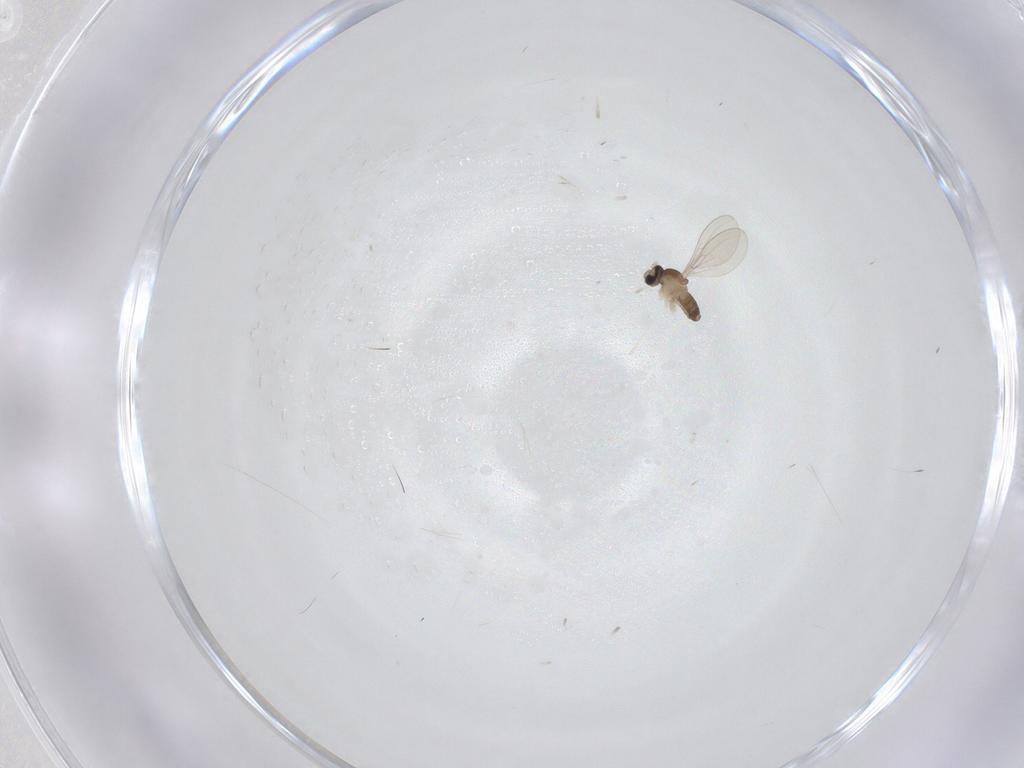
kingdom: Animalia
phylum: Arthropoda
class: Insecta
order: Diptera
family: Cecidomyiidae
